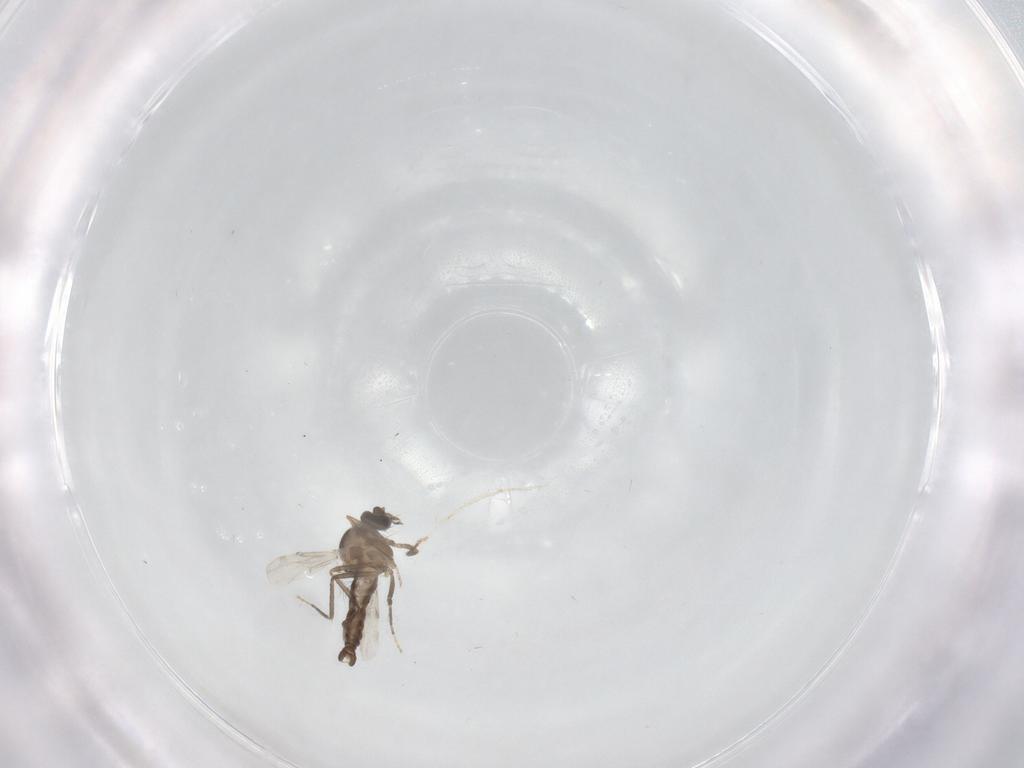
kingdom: Animalia
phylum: Arthropoda
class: Insecta
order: Diptera
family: Ceratopogonidae
